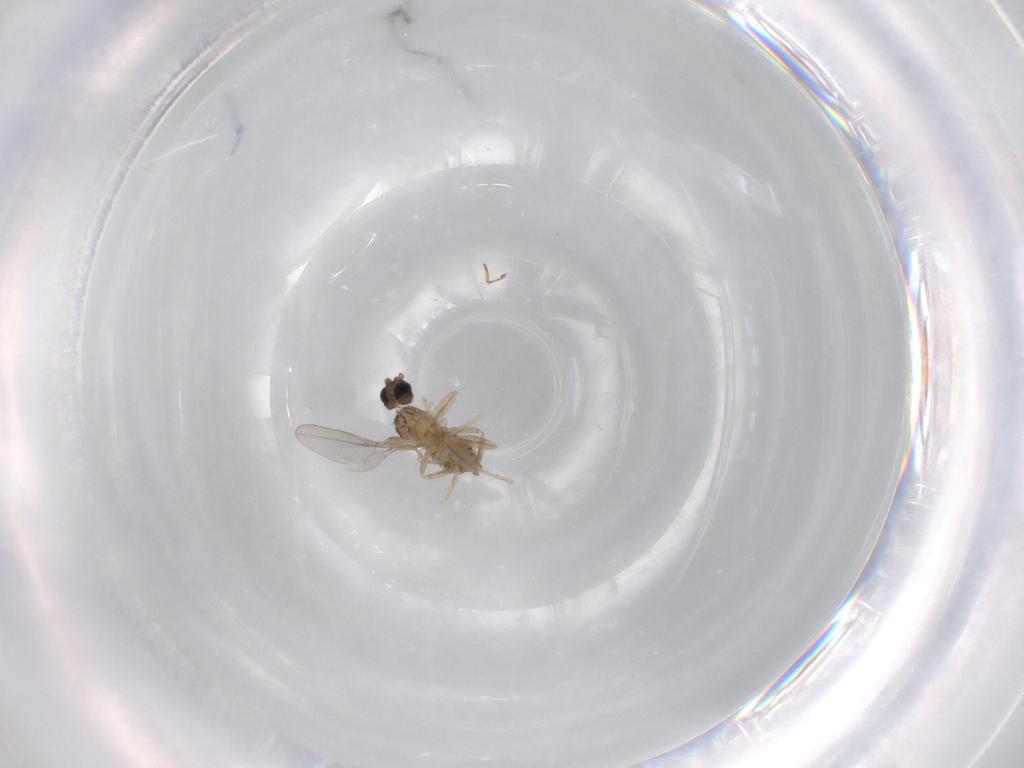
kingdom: Animalia
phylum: Arthropoda
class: Insecta
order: Diptera
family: Cecidomyiidae
